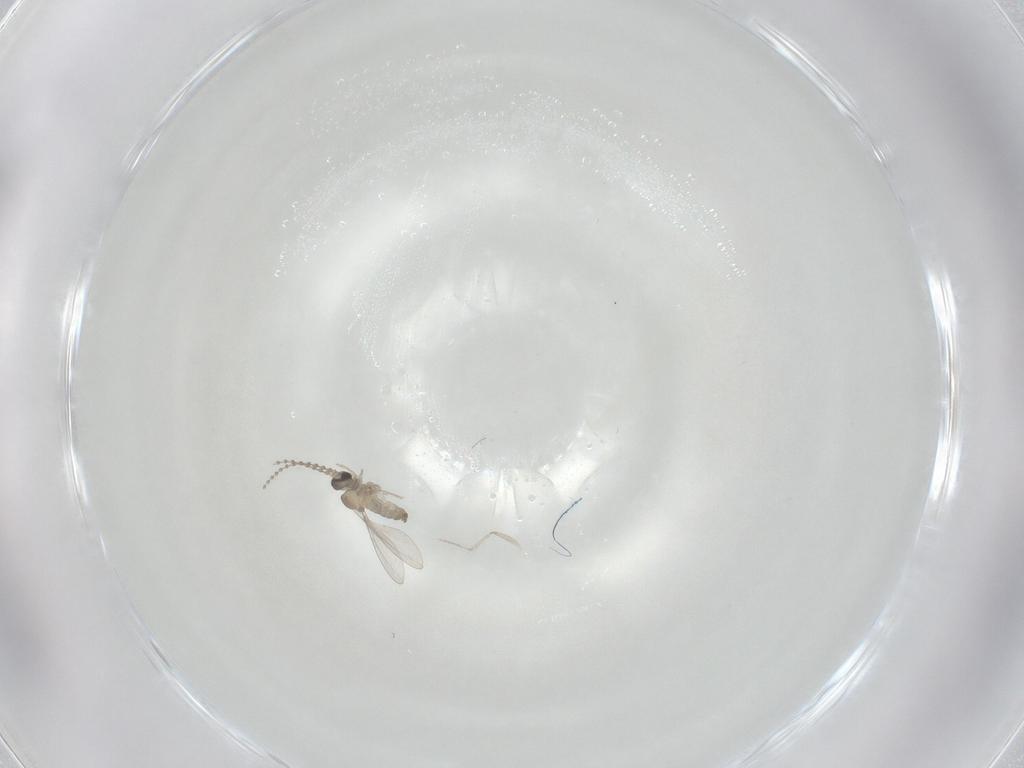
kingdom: Animalia
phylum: Arthropoda
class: Insecta
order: Diptera
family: Cecidomyiidae
